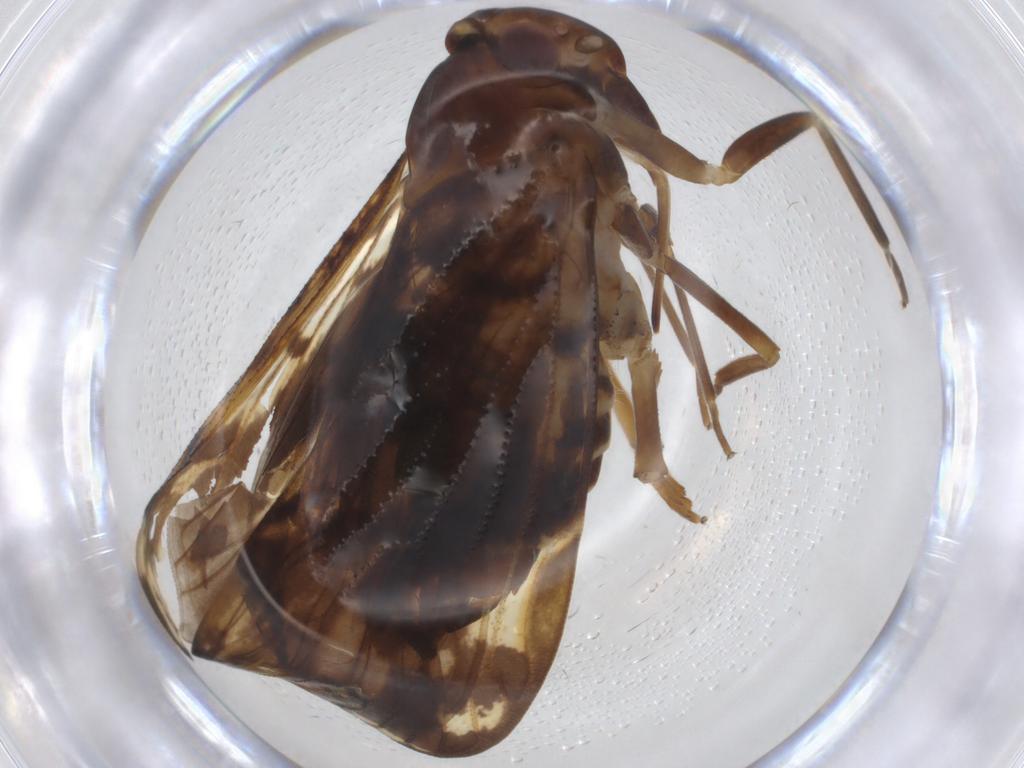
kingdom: Animalia
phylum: Arthropoda
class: Insecta
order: Hemiptera
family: Cixiidae
